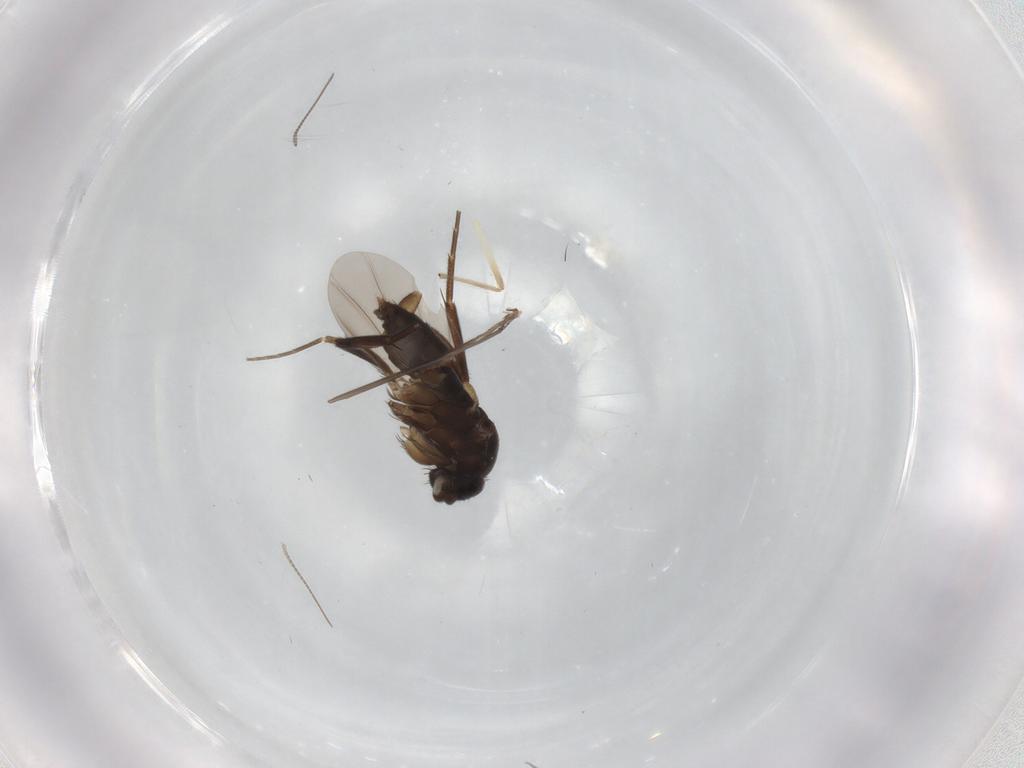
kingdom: Animalia
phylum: Arthropoda
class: Insecta
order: Diptera
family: Chironomidae
